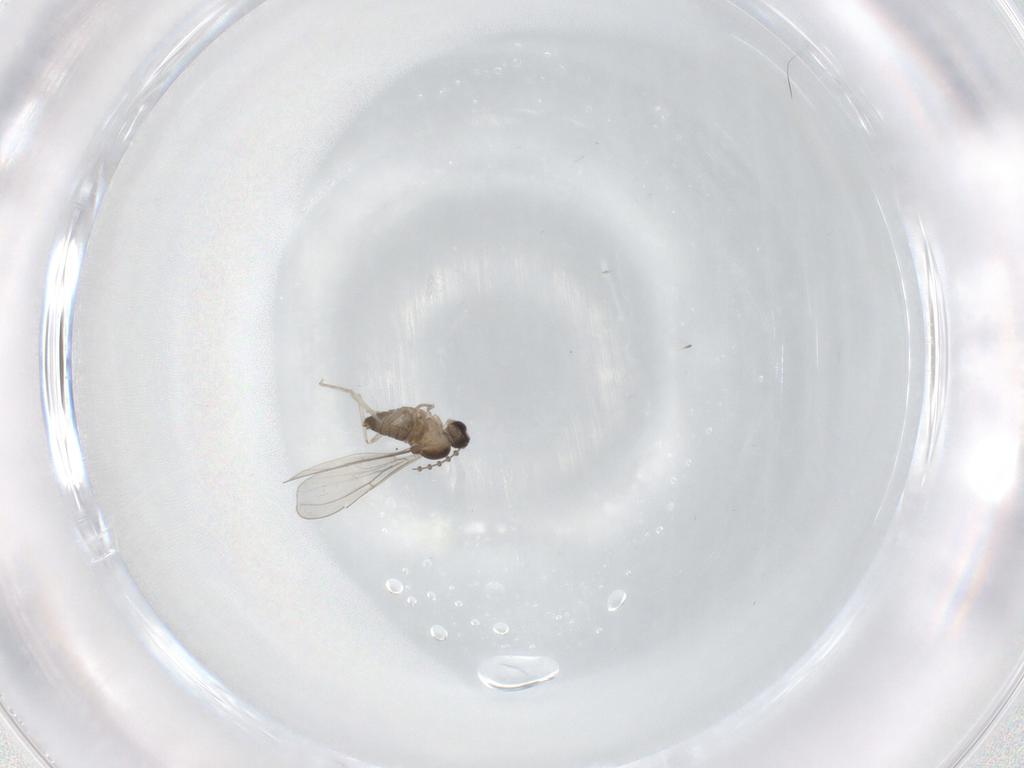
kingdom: Animalia
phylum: Arthropoda
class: Insecta
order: Diptera
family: Cecidomyiidae
